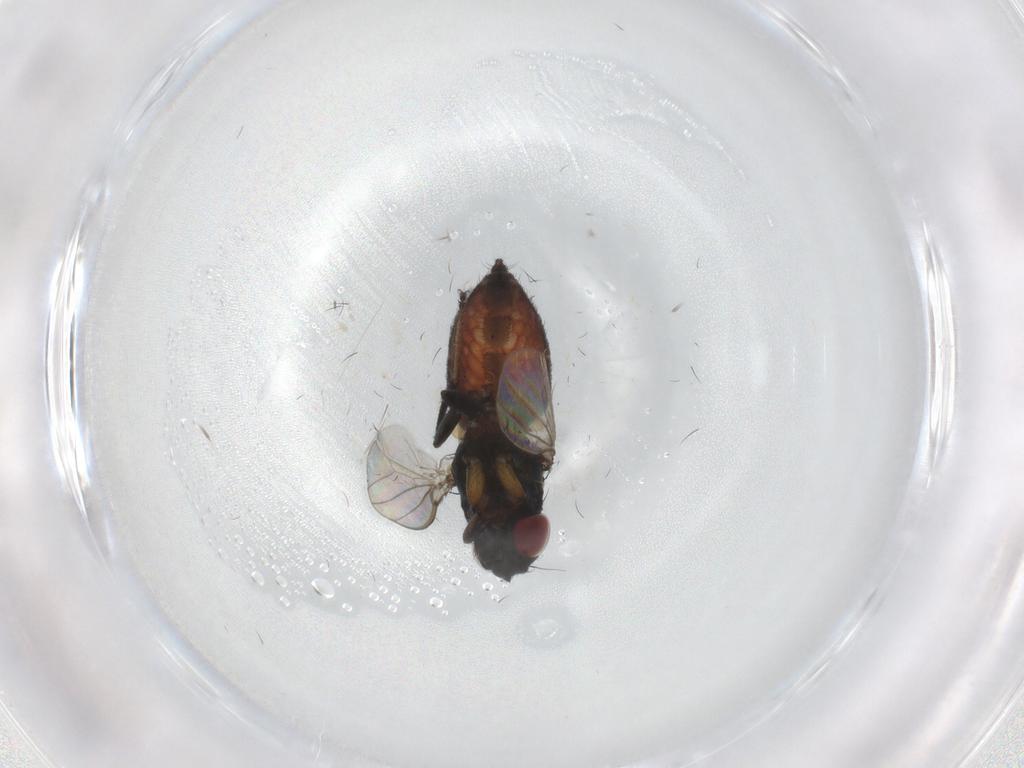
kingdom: Animalia
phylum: Arthropoda
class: Insecta
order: Diptera
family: Milichiidae
